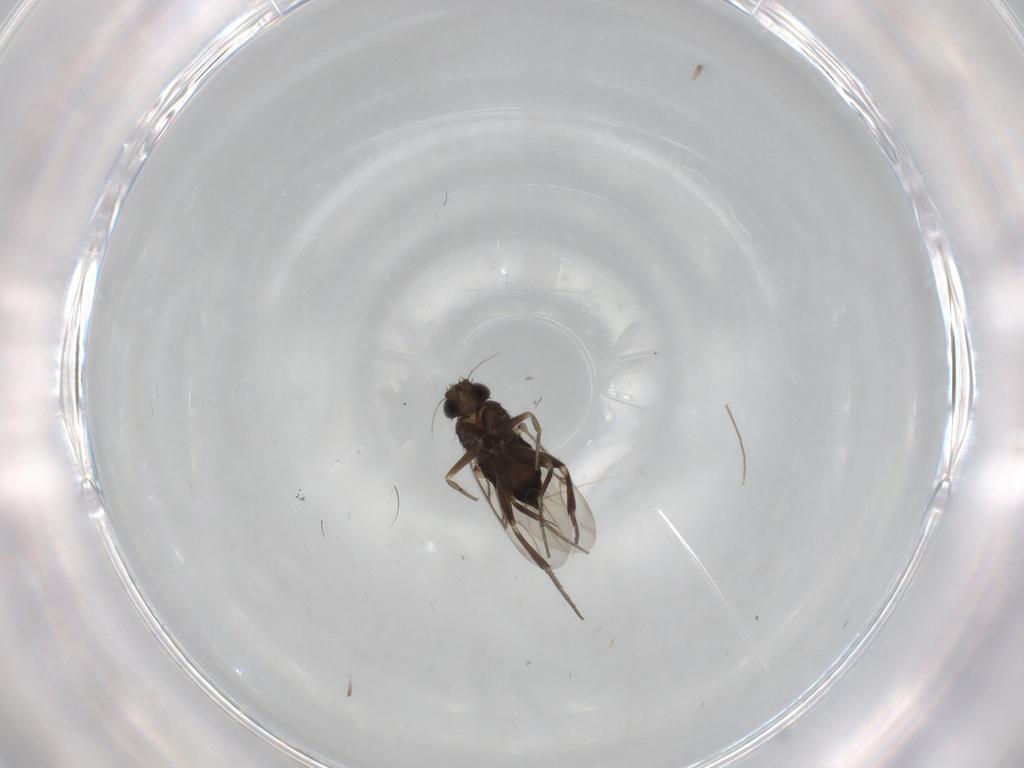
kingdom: Animalia
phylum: Arthropoda
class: Insecta
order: Diptera
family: Phoridae
